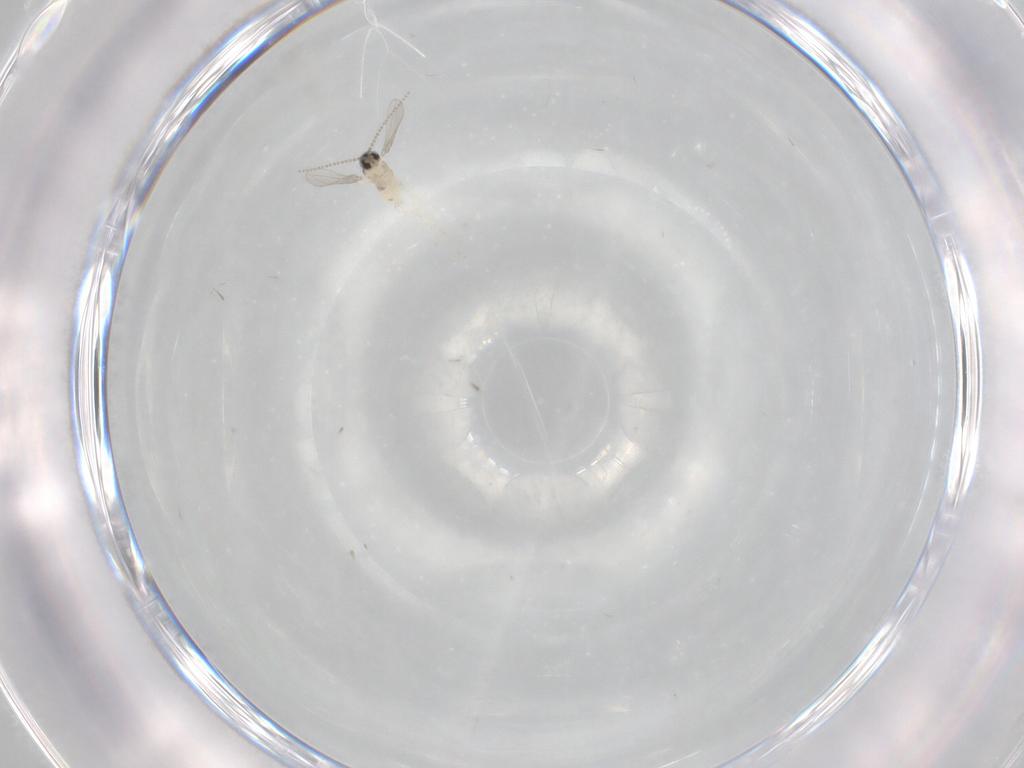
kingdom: Animalia
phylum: Arthropoda
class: Insecta
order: Diptera
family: Cecidomyiidae
